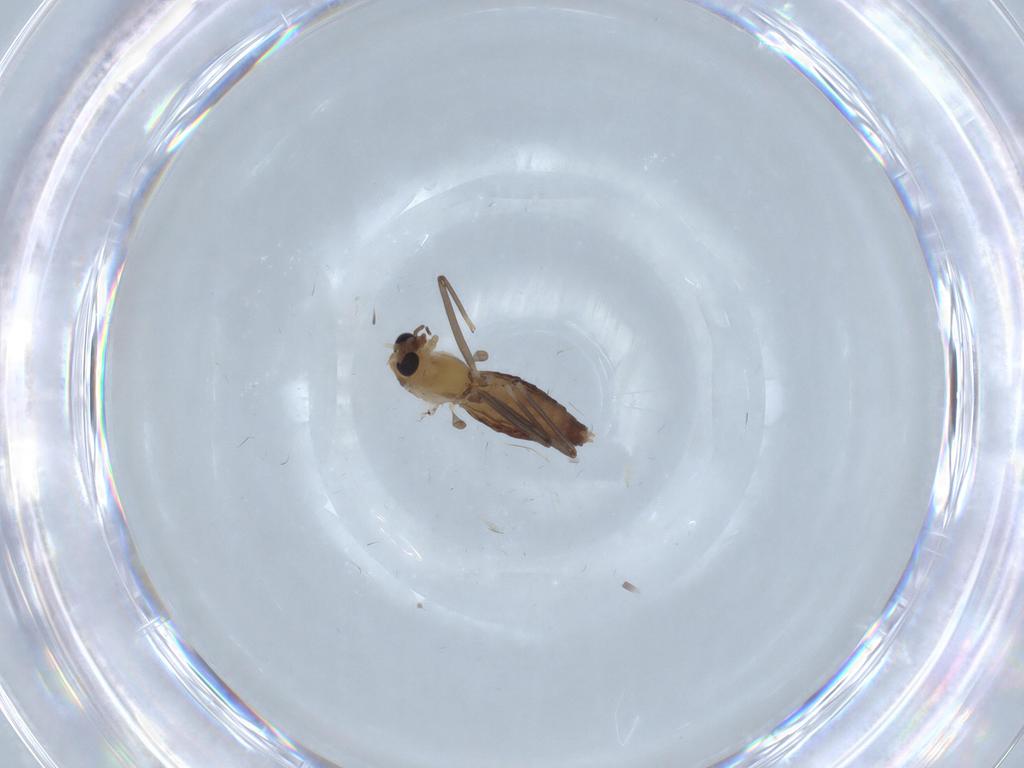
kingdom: Animalia
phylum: Arthropoda
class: Insecta
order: Diptera
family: Chironomidae
